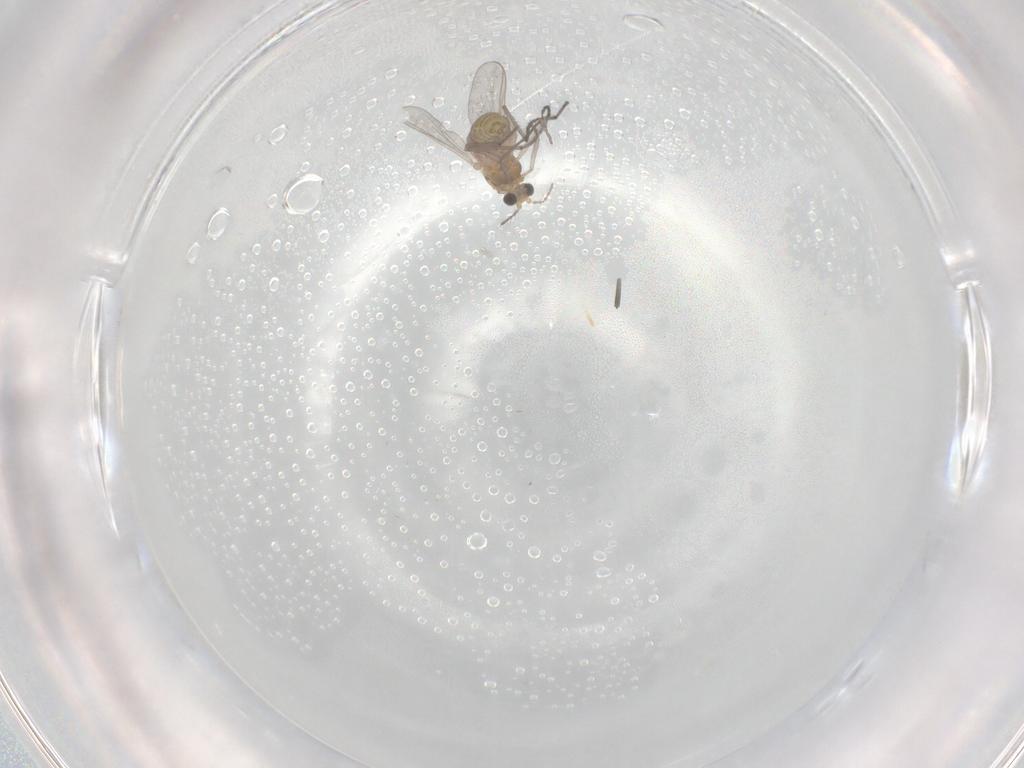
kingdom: Animalia
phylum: Arthropoda
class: Insecta
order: Diptera
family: Chironomidae
